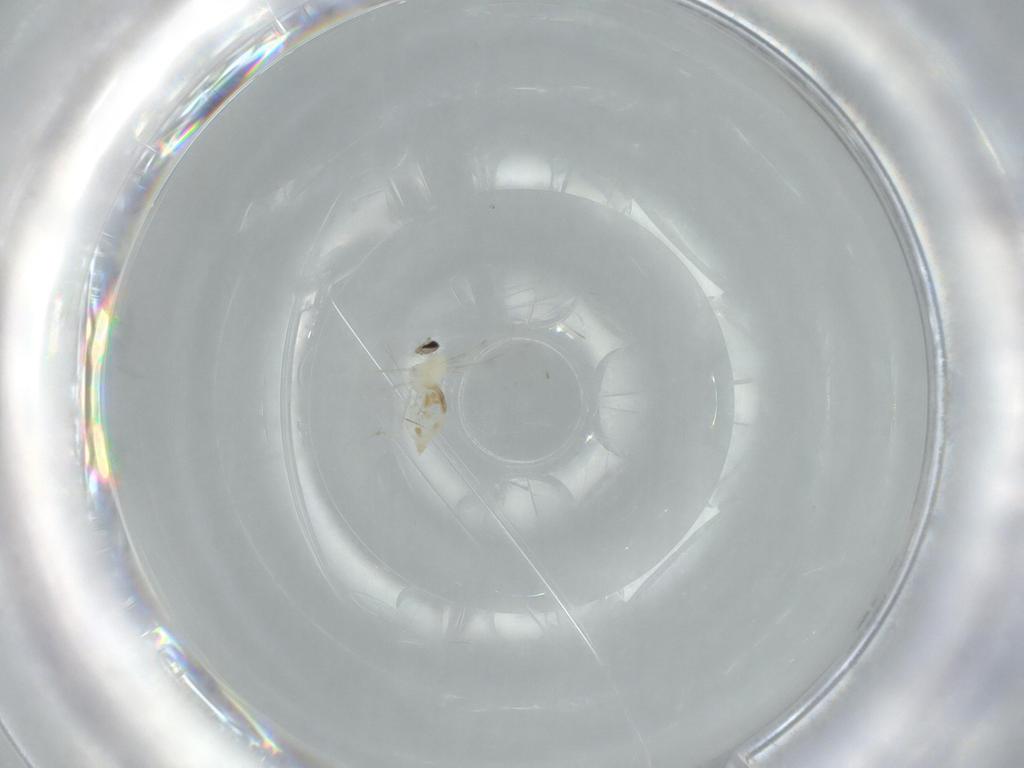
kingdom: Animalia
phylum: Arthropoda
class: Insecta
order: Diptera
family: Cecidomyiidae
